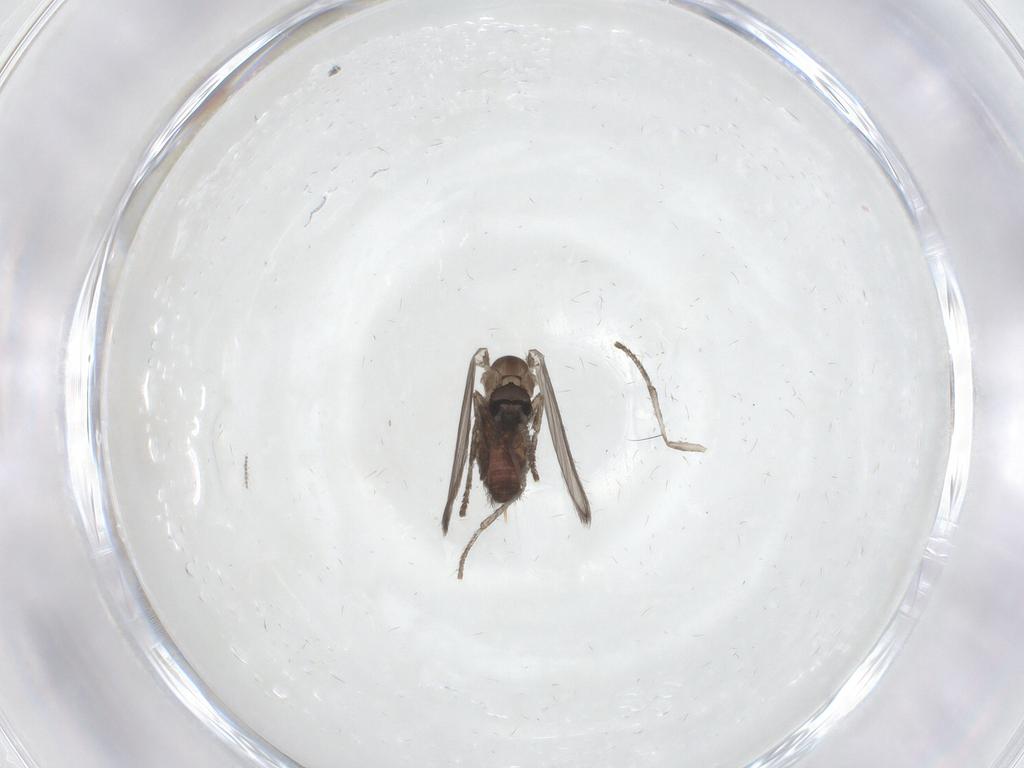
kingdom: Animalia
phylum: Arthropoda
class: Insecta
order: Diptera
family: Psychodidae
